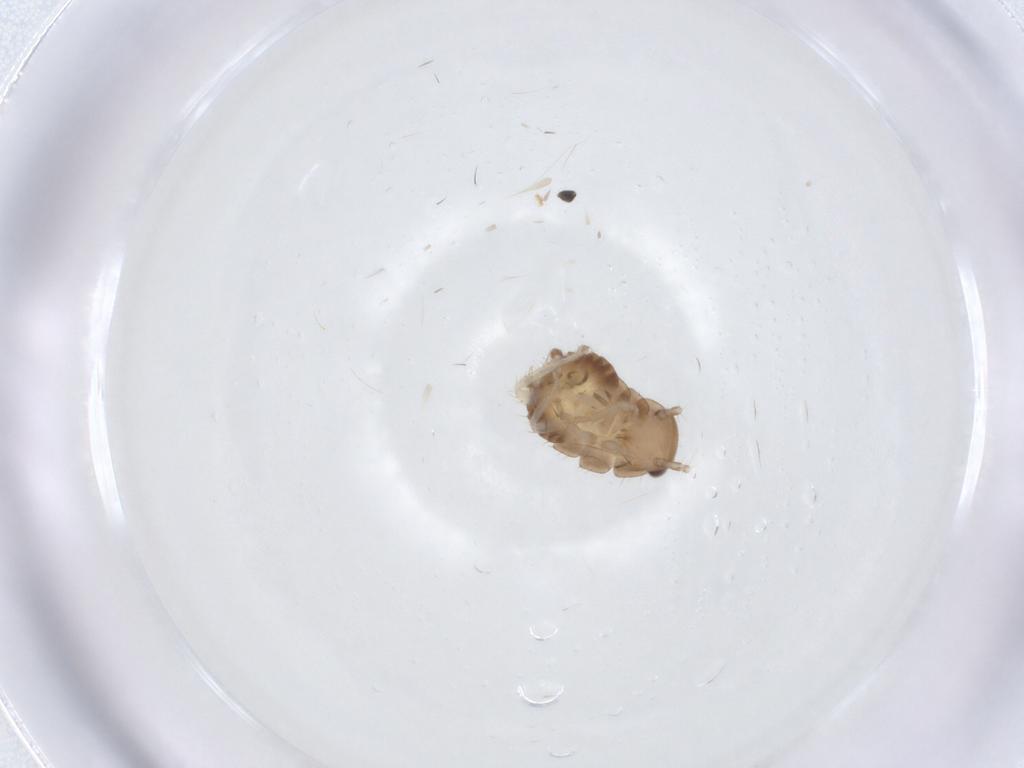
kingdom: Animalia
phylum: Arthropoda
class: Insecta
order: Blattodea
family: Ectobiidae
